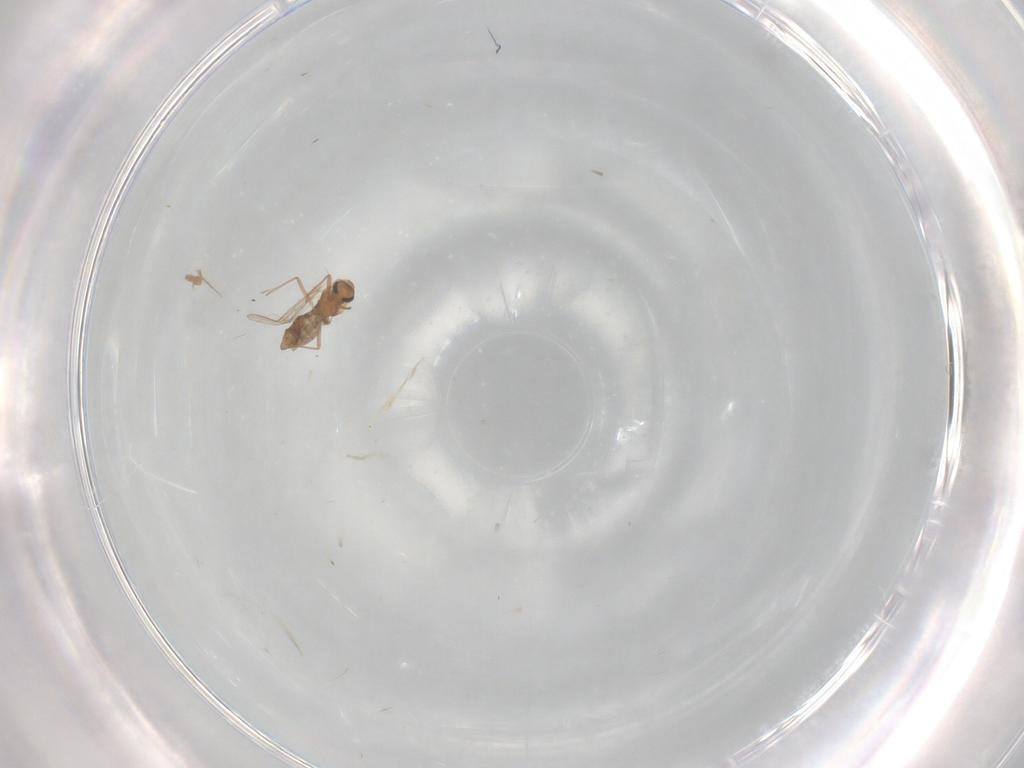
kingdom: Animalia
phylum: Arthropoda
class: Insecta
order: Diptera
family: Chironomidae
